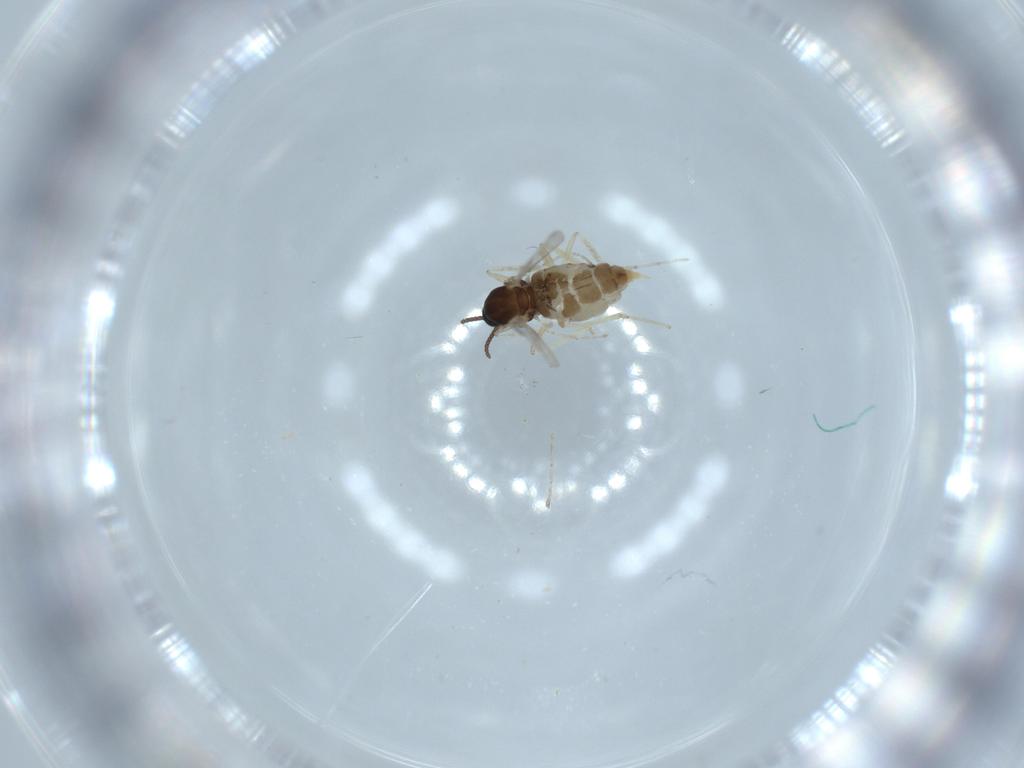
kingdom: Animalia
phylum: Arthropoda
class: Insecta
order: Diptera
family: Cecidomyiidae
